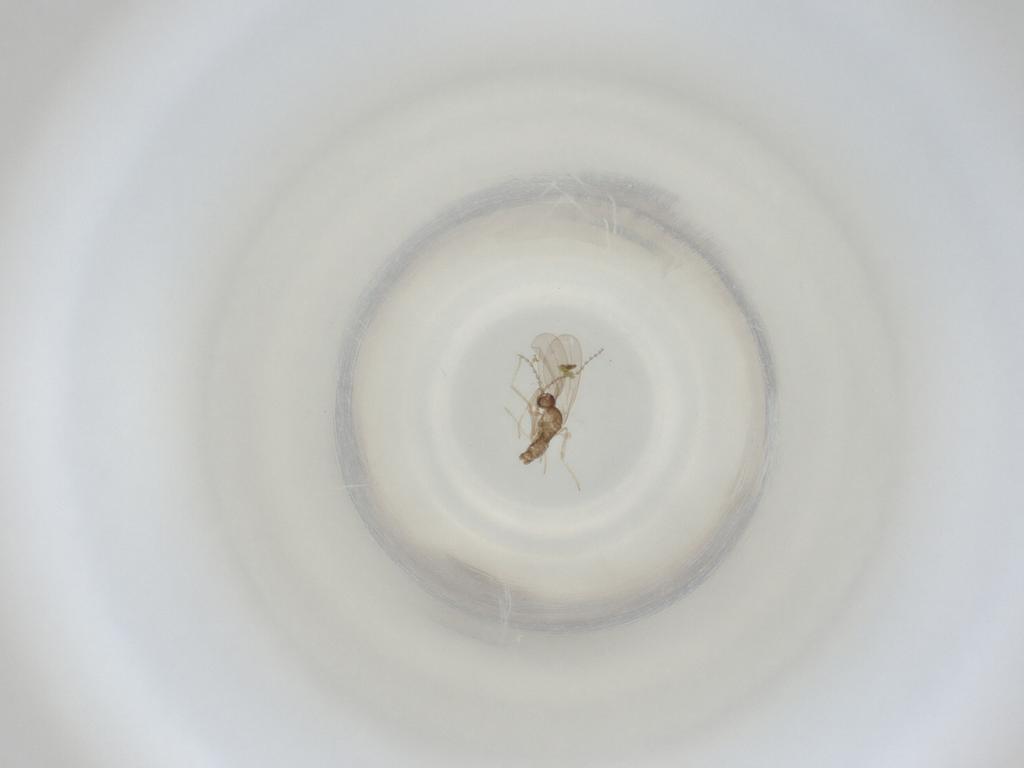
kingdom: Animalia
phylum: Arthropoda
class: Insecta
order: Diptera
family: Cecidomyiidae
